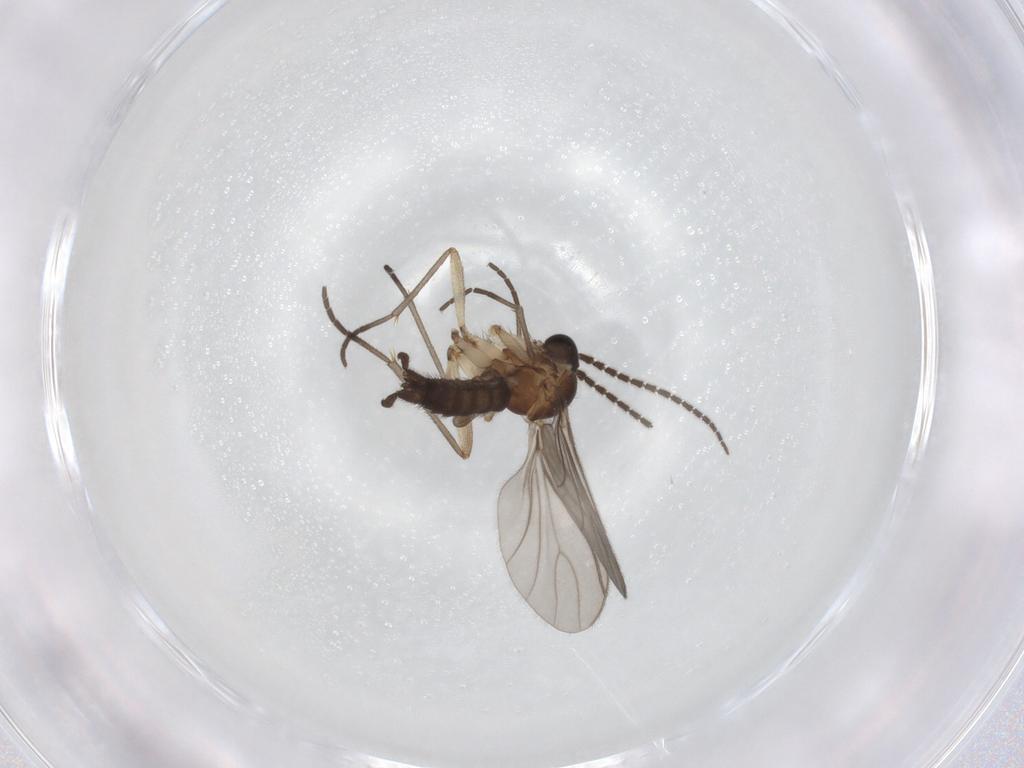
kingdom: Animalia
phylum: Arthropoda
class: Insecta
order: Diptera
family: Sciaridae
